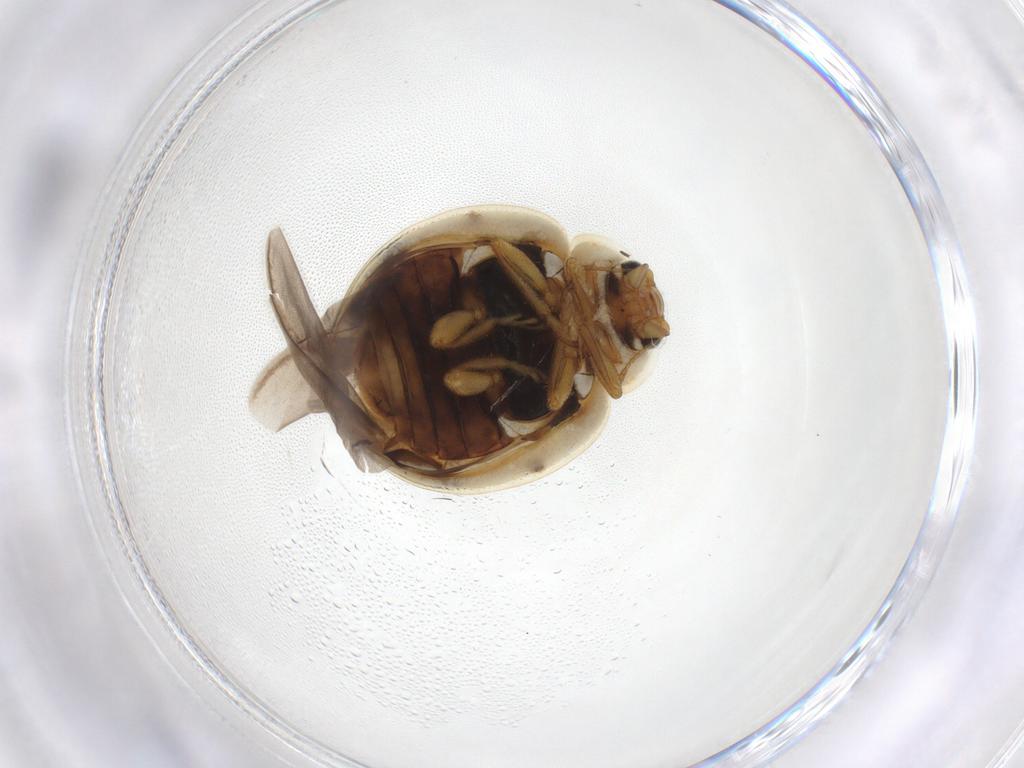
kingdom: Animalia
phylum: Arthropoda
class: Insecta
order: Coleoptera
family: Coccinellidae
